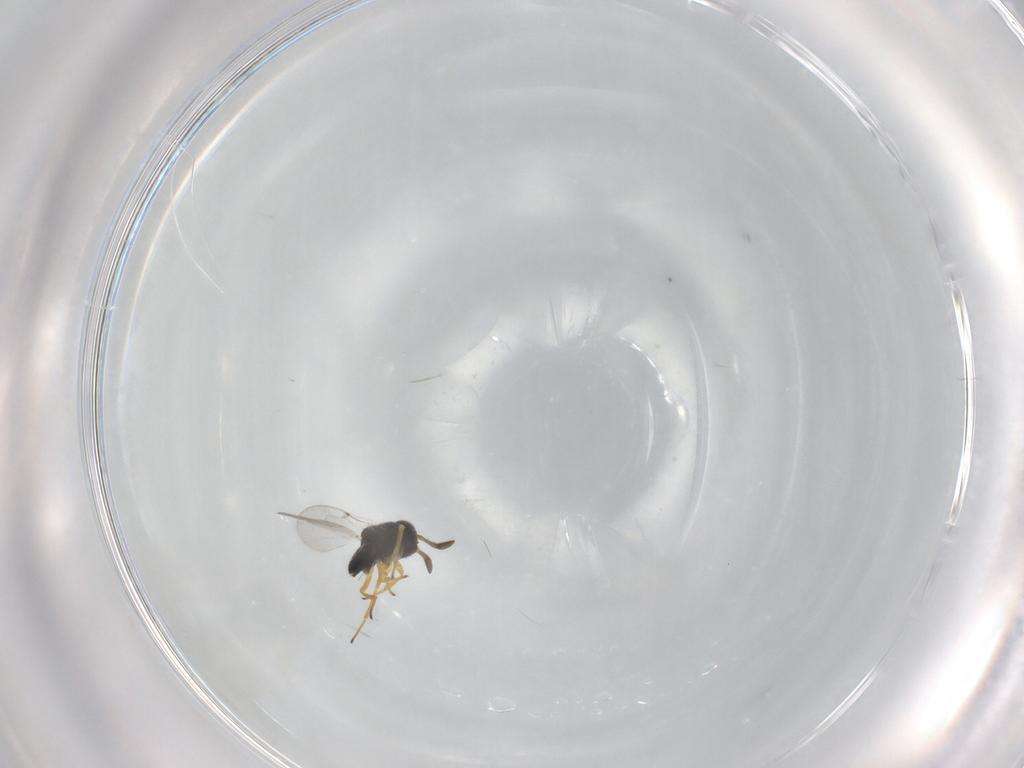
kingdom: Animalia
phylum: Arthropoda
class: Insecta
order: Hymenoptera
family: Encyrtidae
